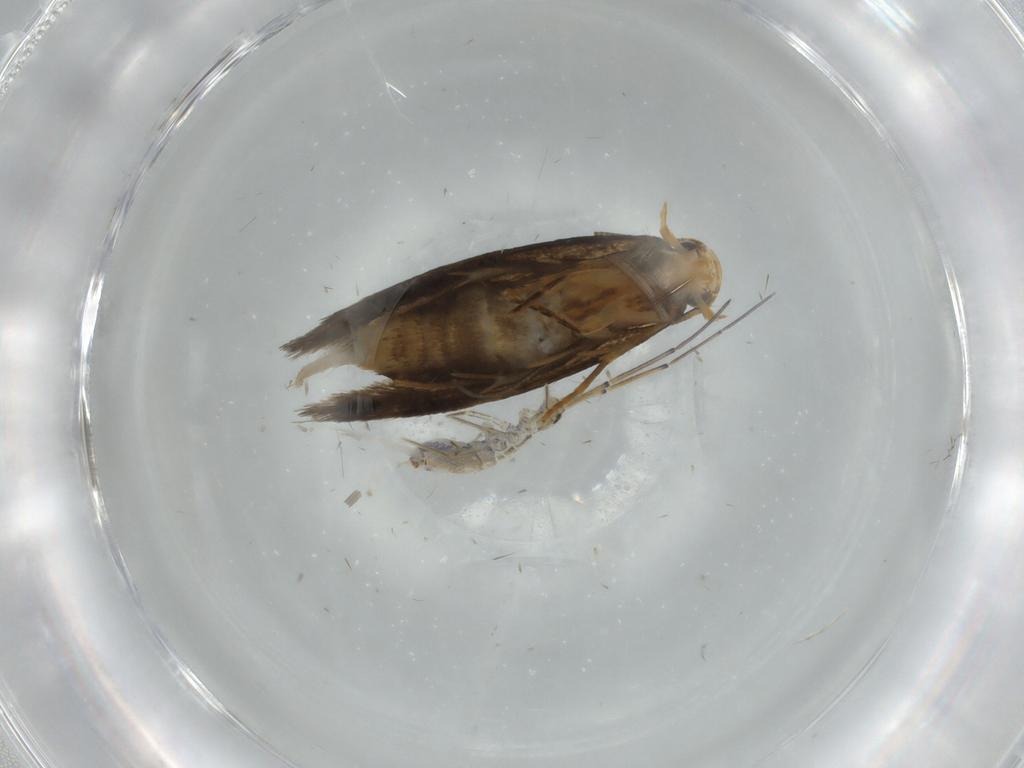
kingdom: Animalia
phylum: Arthropoda
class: Insecta
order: Lepidoptera
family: Tineidae
